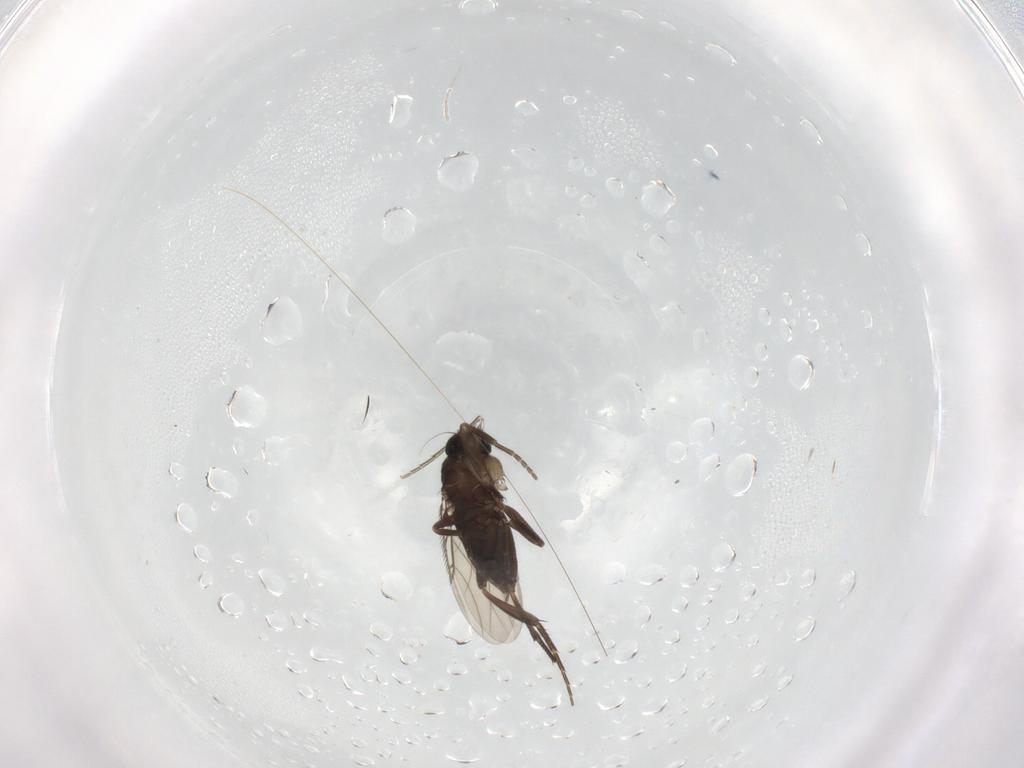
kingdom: Animalia
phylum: Arthropoda
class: Insecta
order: Diptera
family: Phoridae
